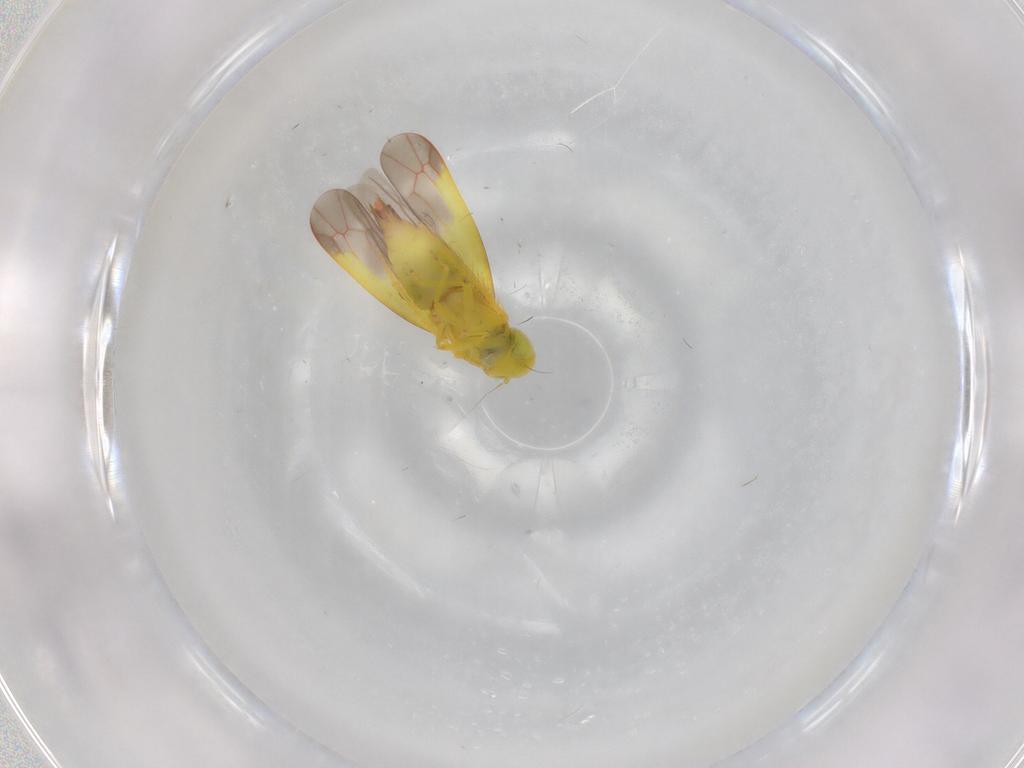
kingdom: Animalia
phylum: Arthropoda
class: Insecta
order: Hemiptera
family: Cicadellidae
